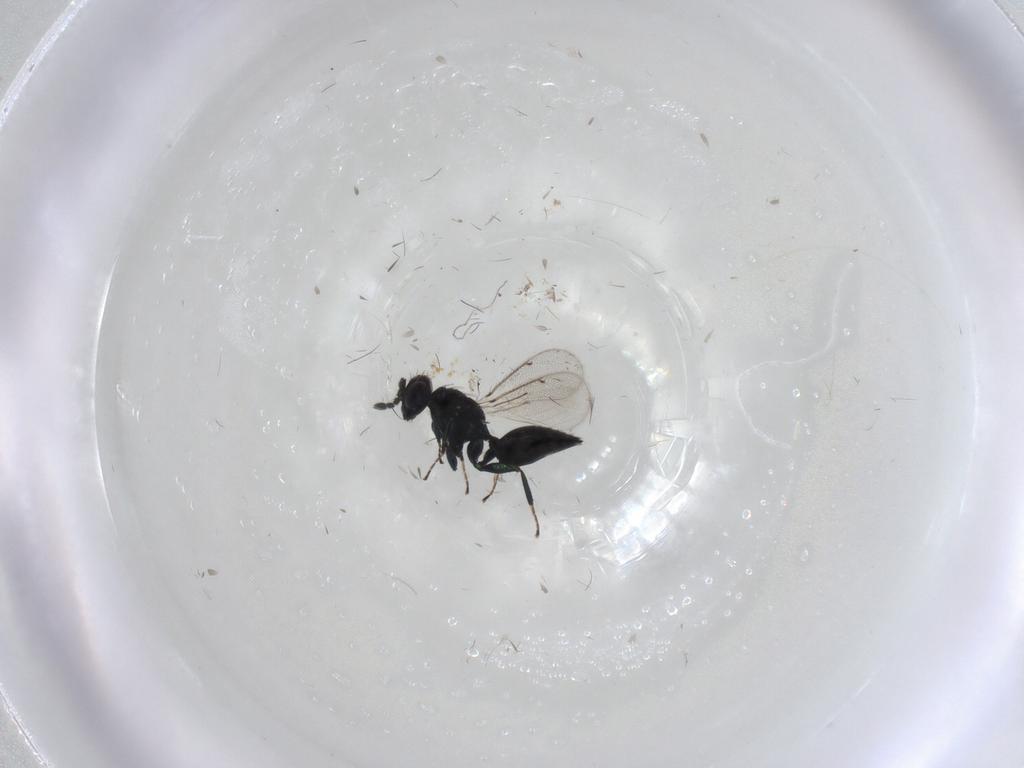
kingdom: Animalia
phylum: Arthropoda
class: Insecta
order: Hymenoptera
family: Eulophidae
